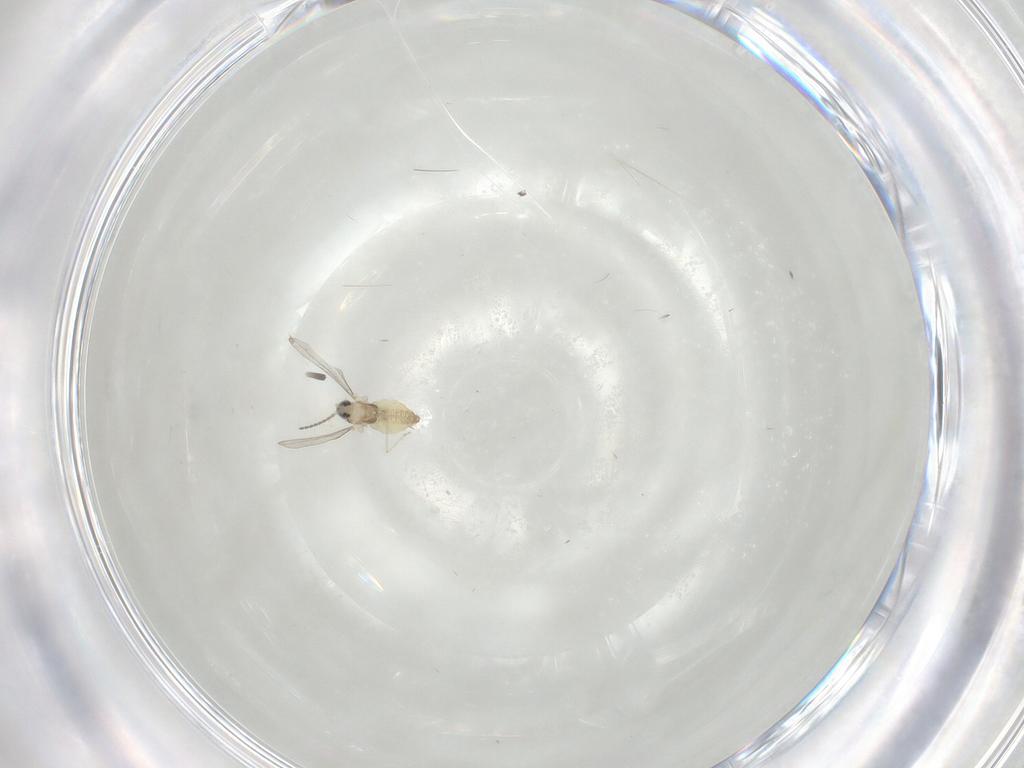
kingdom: Animalia
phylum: Arthropoda
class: Insecta
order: Diptera
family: Cecidomyiidae
